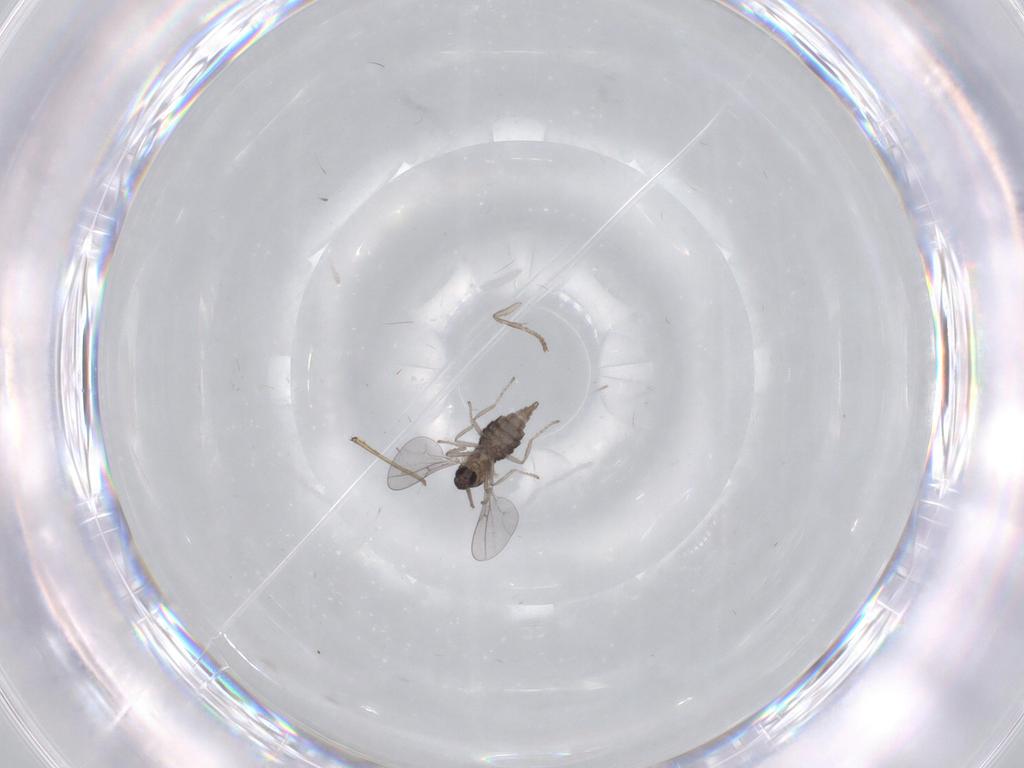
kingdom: Animalia
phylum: Arthropoda
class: Insecta
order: Diptera
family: Psychodidae
